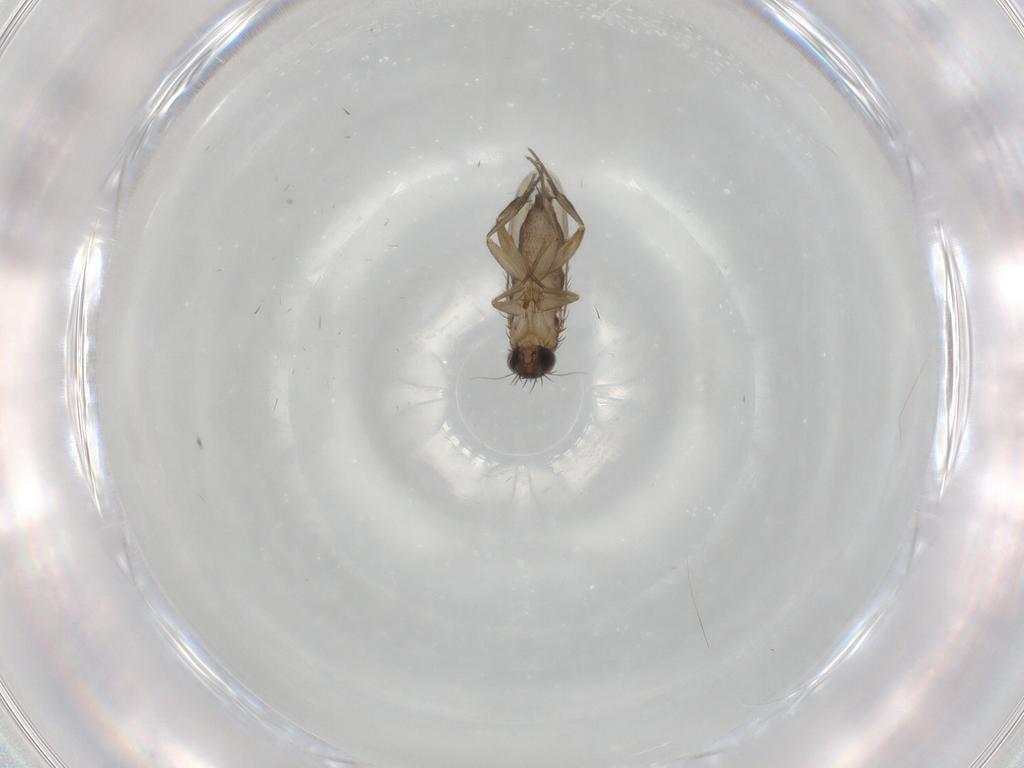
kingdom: Animalia
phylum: Arthropoda
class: Insecta
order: Diptera
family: Phoridae
